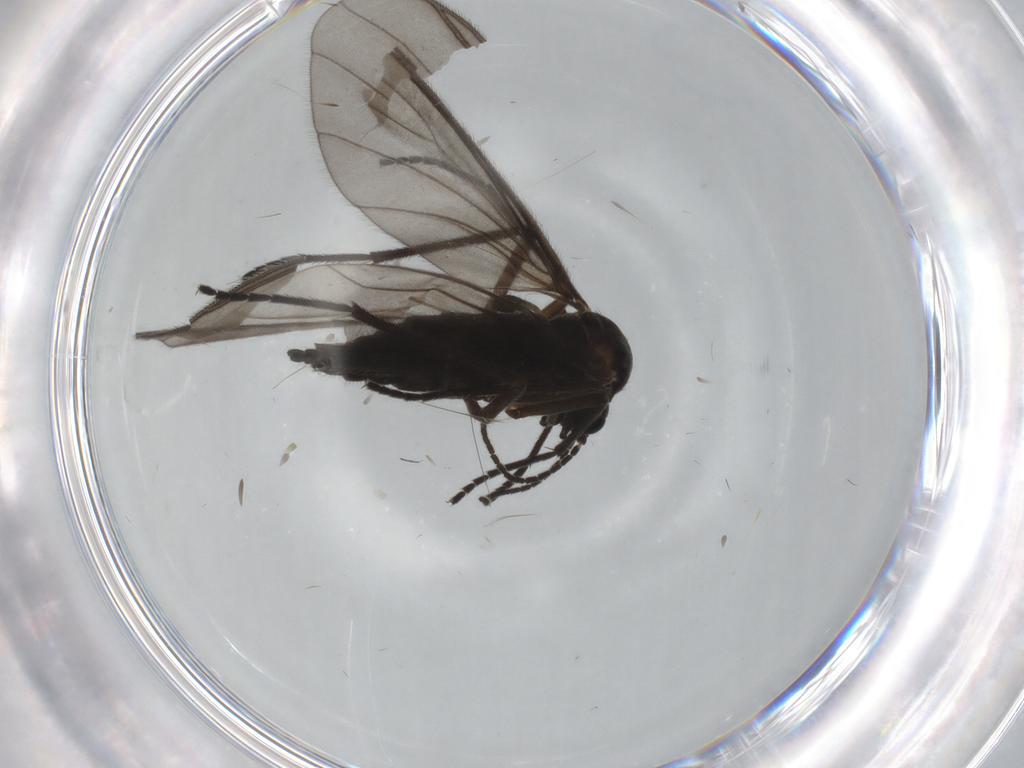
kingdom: Animalia
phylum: Arthropoda
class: Insecta
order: Diptera
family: Sciaridae
